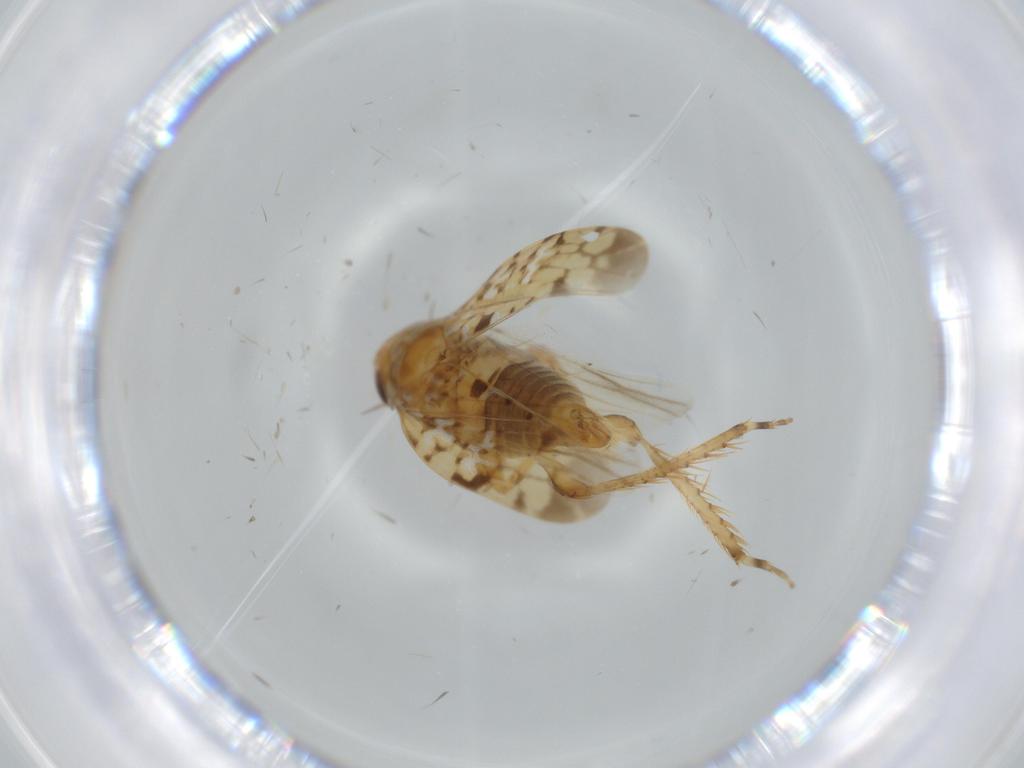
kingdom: Animalia
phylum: Arthropoda
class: Insecta
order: Hemiptera
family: Cicadellidae
